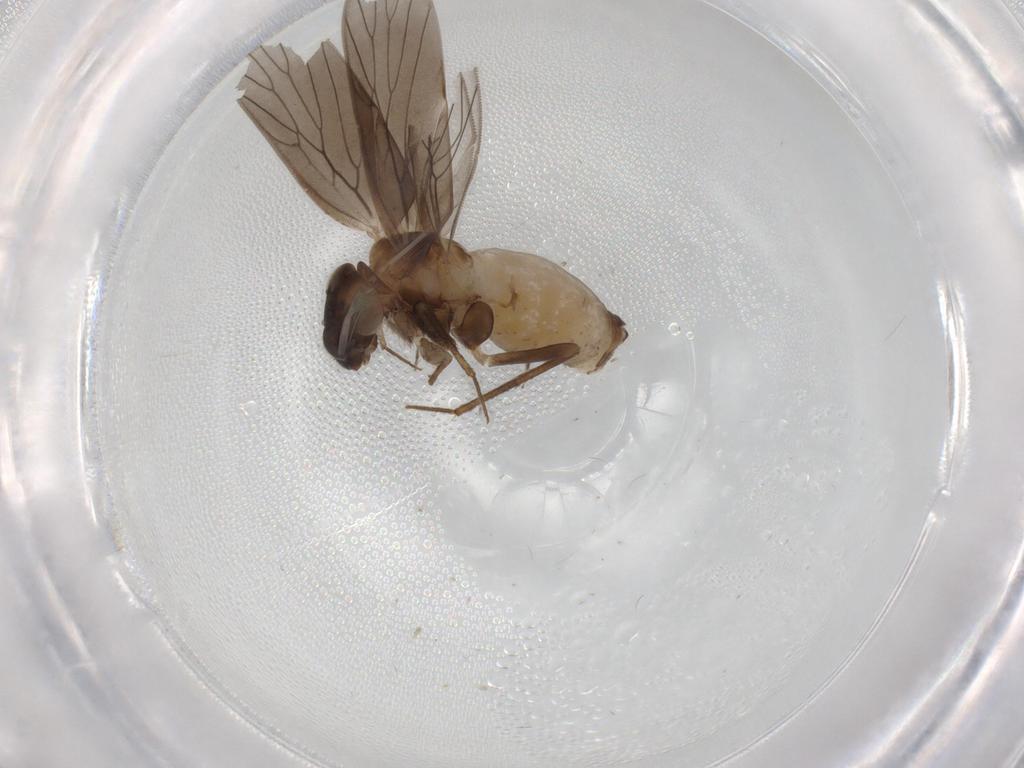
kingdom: Animalia
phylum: Arthropoda
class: Insecta
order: Psocodea
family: Lepidopsocidae
